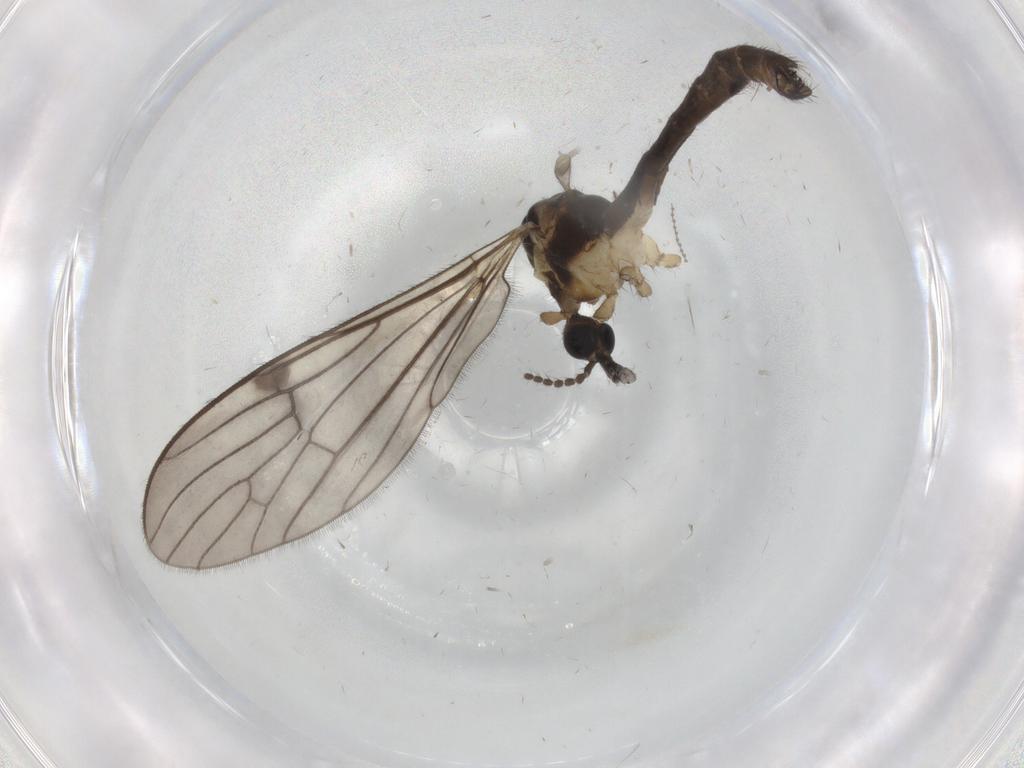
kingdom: Animalia
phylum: Arthropoda
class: Insecta
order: Diptera
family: Limoniidae
